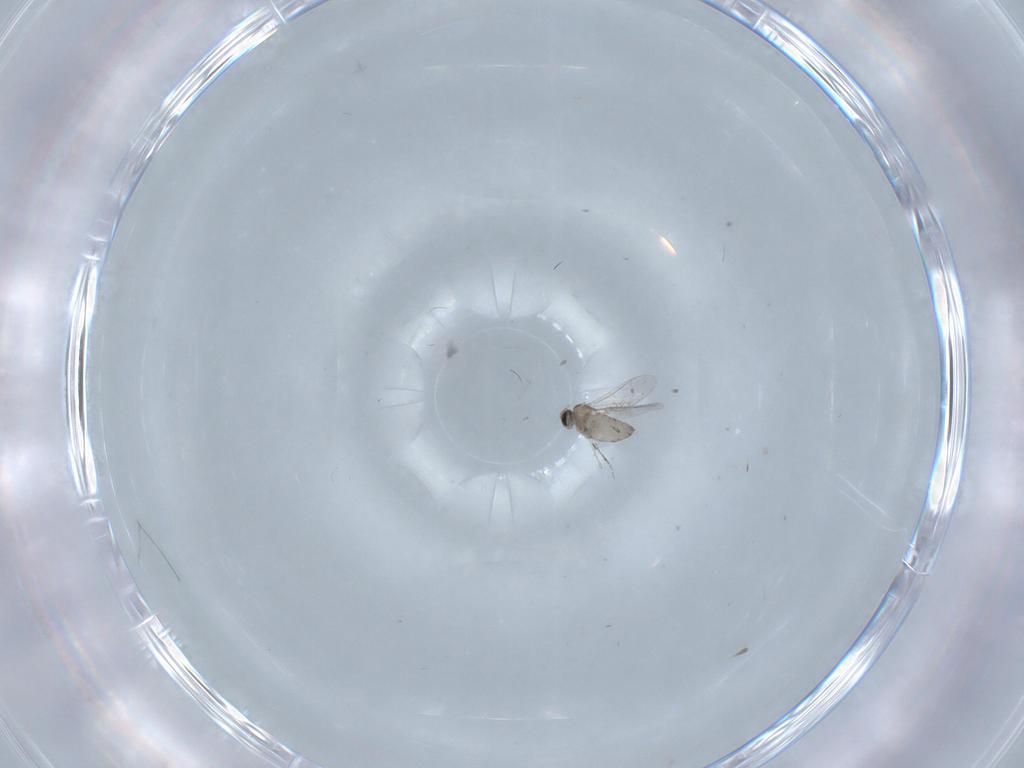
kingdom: Animalia
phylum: Arthropoda
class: Insecta
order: Diptera
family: Cecidomyiidae
